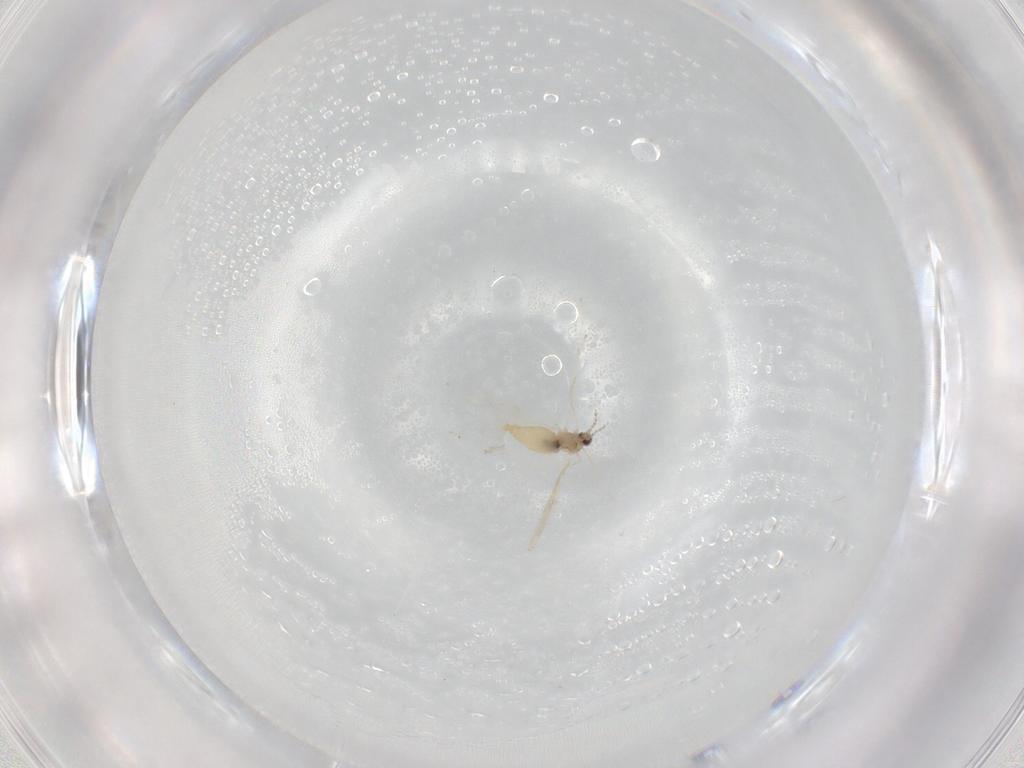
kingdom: Animalia
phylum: Arthropoda
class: Insecta
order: Diptera
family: Cecidomyiidae
